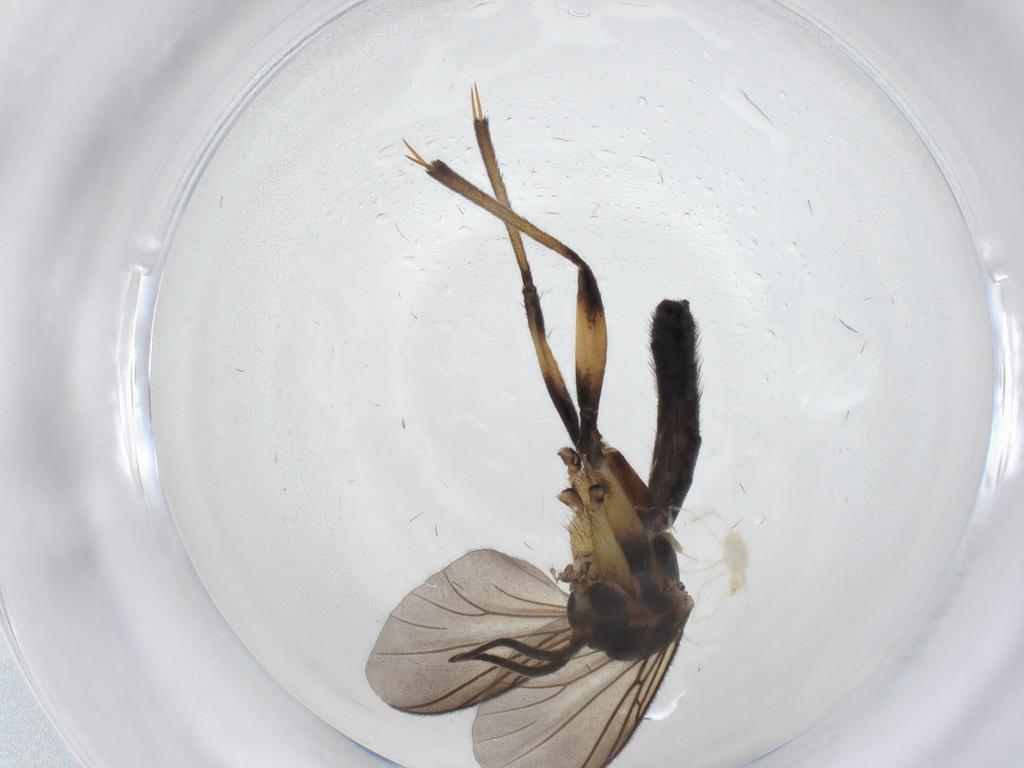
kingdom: Animalia
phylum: Arthropoda
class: Insecta
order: Diptera
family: Mycetophilidae
